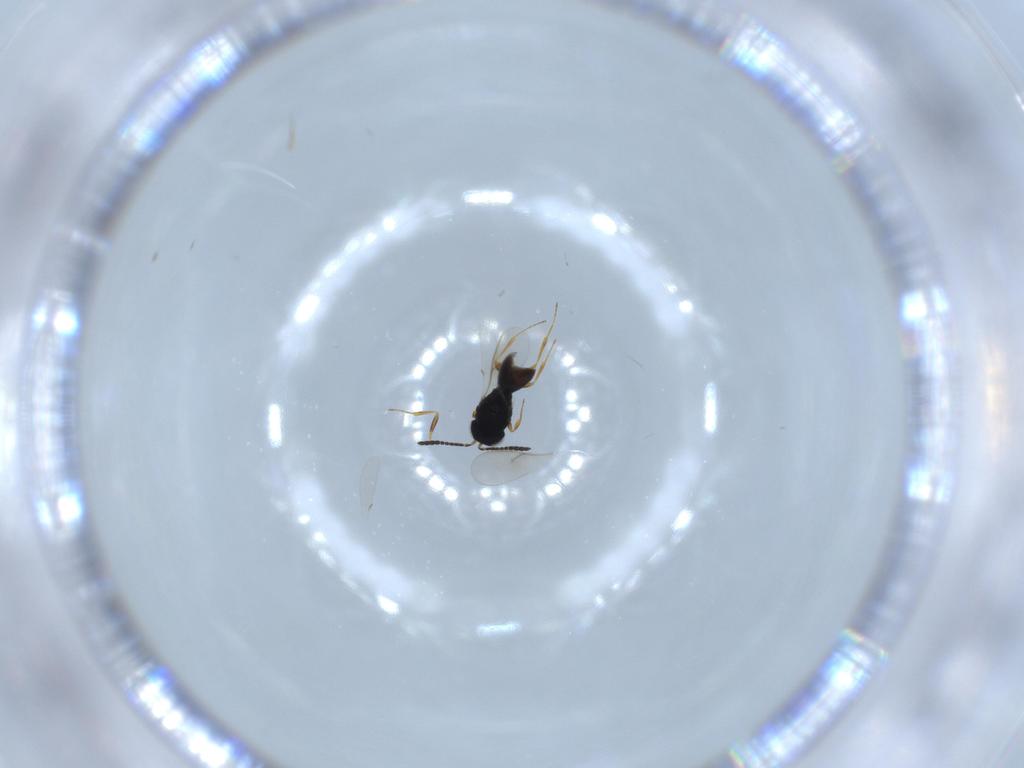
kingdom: Animalia
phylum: Arthropoda
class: Insecta
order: Hymenoptera
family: Scelionidae
